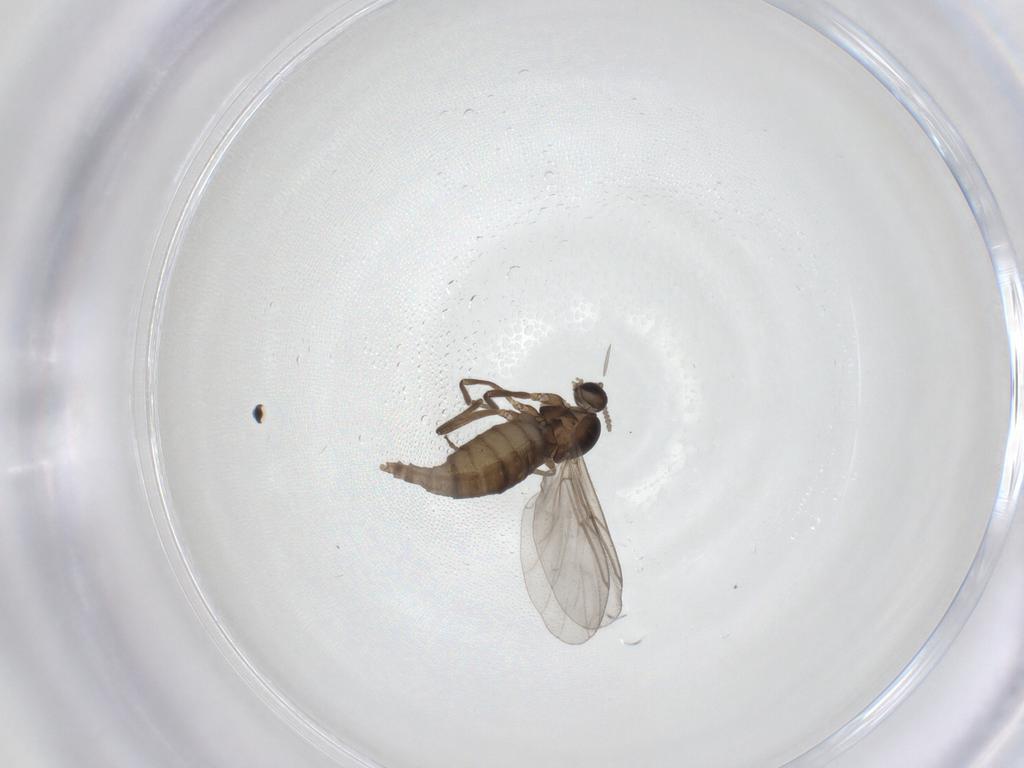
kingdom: Animalia
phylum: Arthropoda
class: Insecta
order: Diptera
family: Cecidomyiidae
